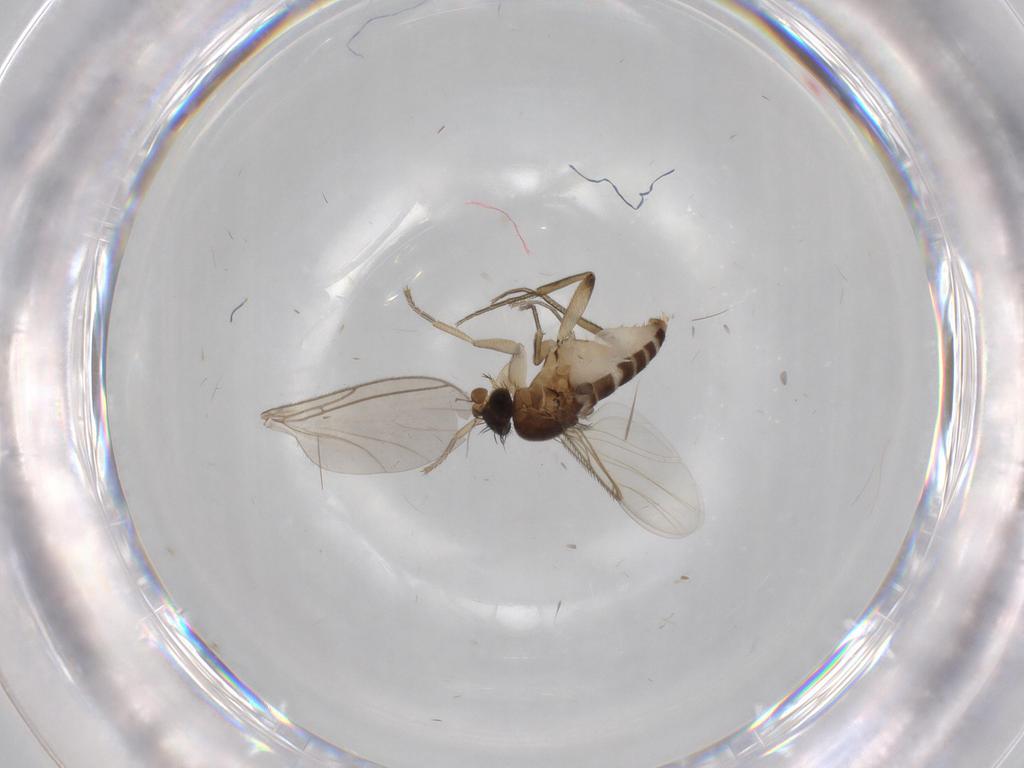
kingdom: Animalia
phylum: Arthropoda
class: Insecta
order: Diptera
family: Phoridae
